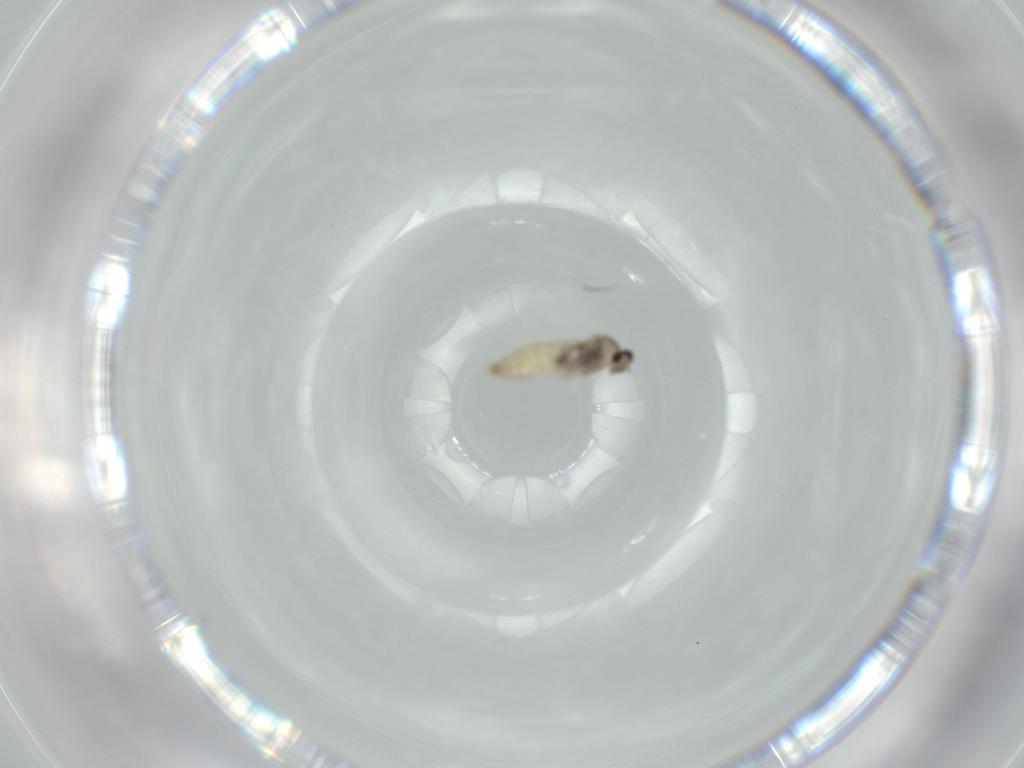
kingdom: Animalia
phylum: Arthropoda
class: Insecta
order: Diptera
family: Cecidomyiidae
